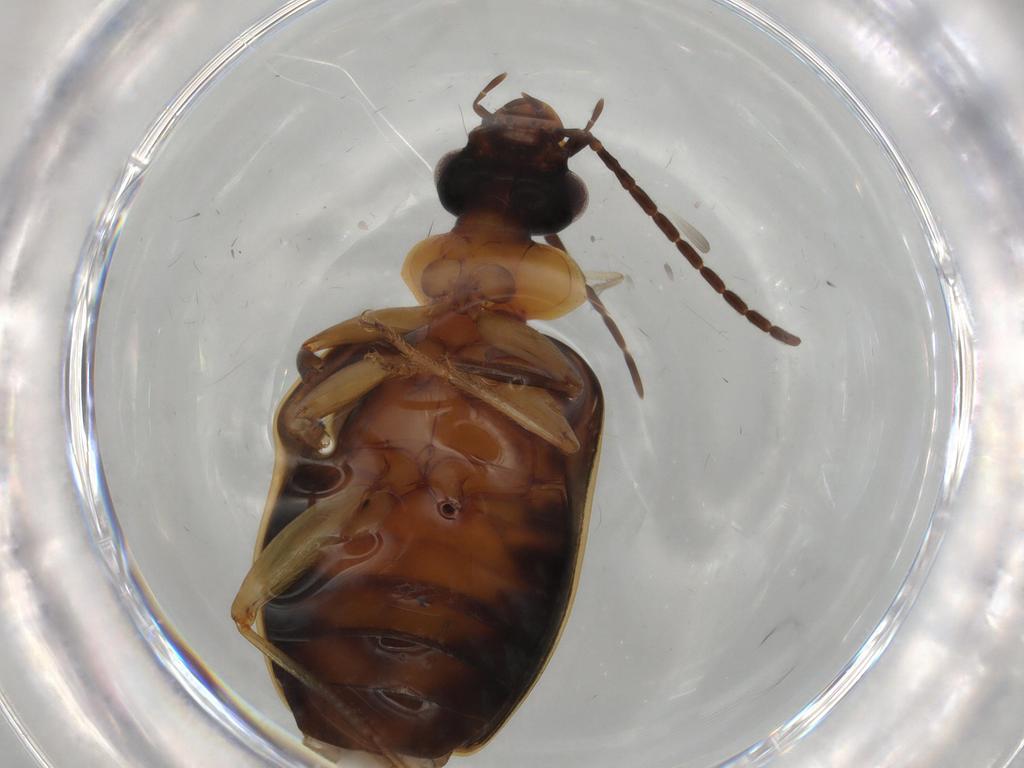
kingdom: Animalia
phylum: Arthropoda
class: Insecta
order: Coleoptera
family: Carabidae
